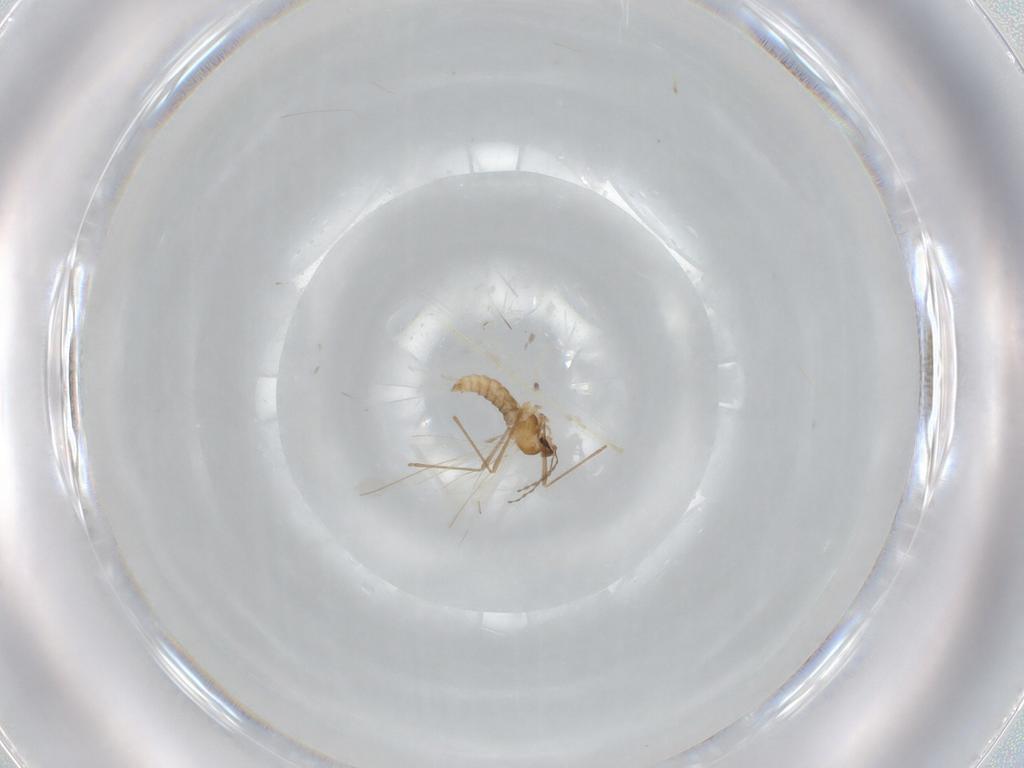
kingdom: Animalia
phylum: Arthropoda
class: Insecta
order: Diptera
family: Cecidomyiidae
